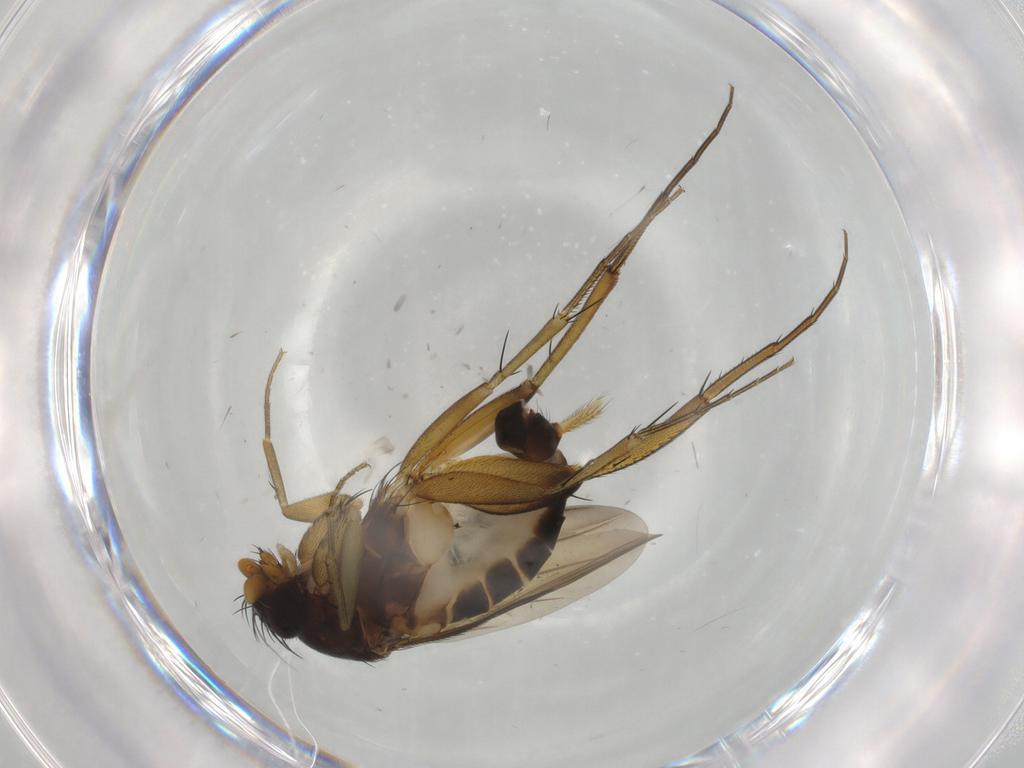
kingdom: Animalia
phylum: Arthropoda
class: Insecta
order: Diptera
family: Phoridae
